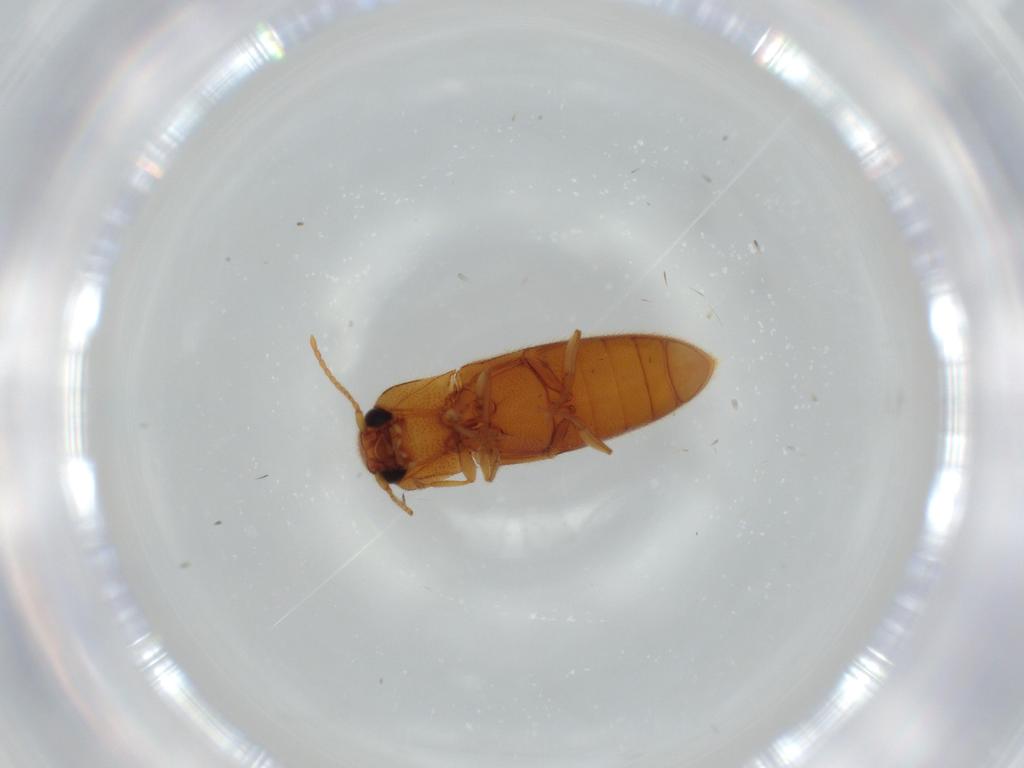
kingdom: Animalia
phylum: Arthropoda
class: Insecta
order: Coleoptera
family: Elateridae
